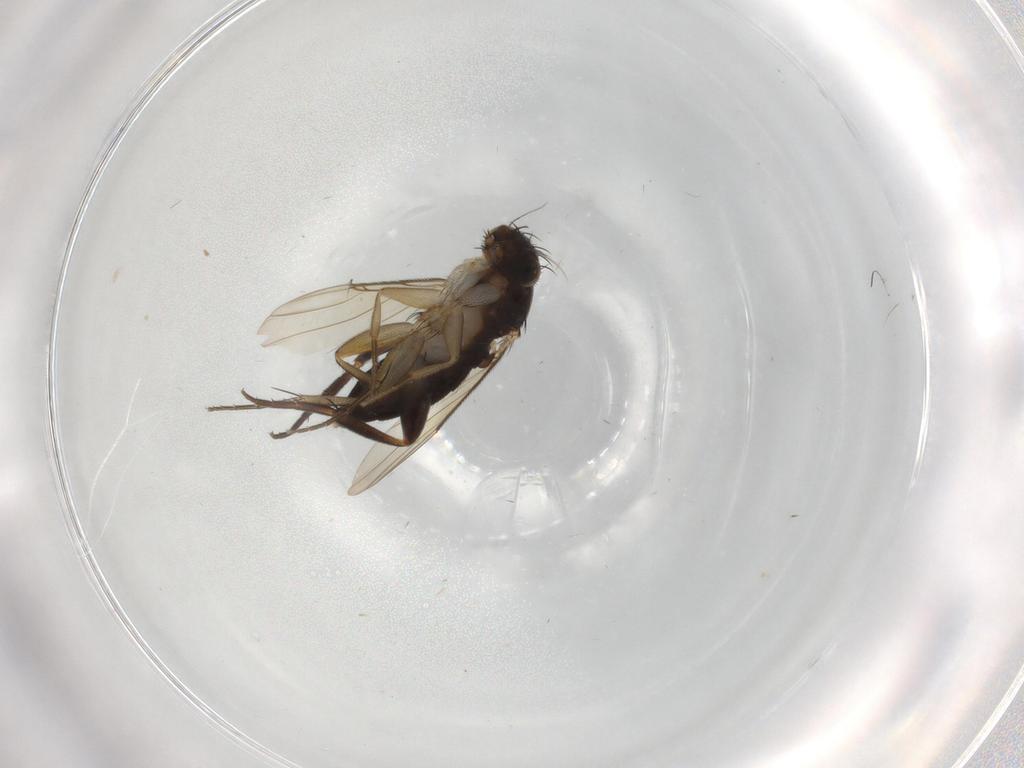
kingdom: Animalia
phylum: Arthropoda
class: Insecta
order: Diptera
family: Phoridae
